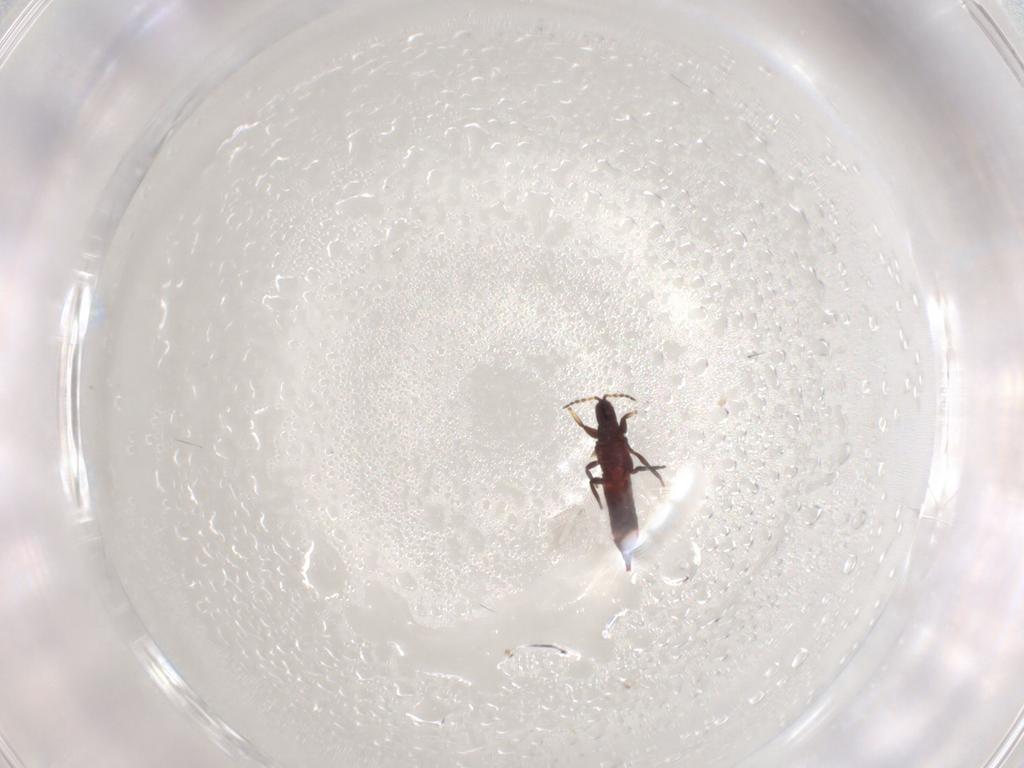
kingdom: Animalia
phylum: Arthropoda
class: Insecta
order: Thysanoptera
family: Phlaeothripidae
